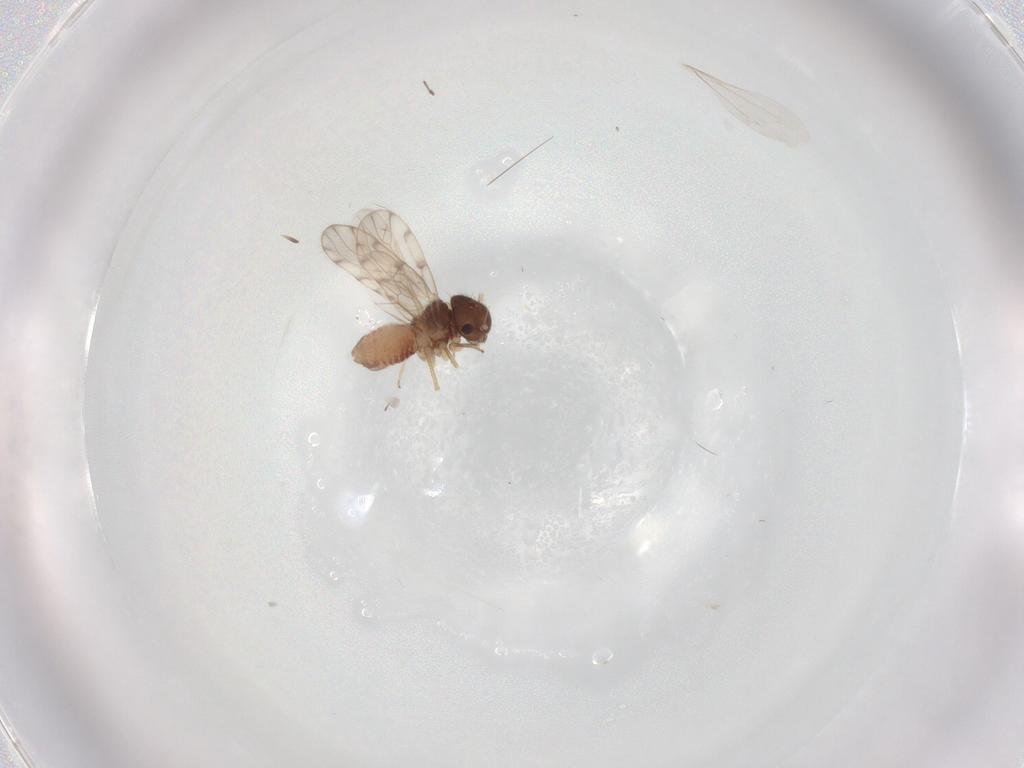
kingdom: Animalia
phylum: Arthropoda
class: Insecta
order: Psocodea
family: Peripsocidae
